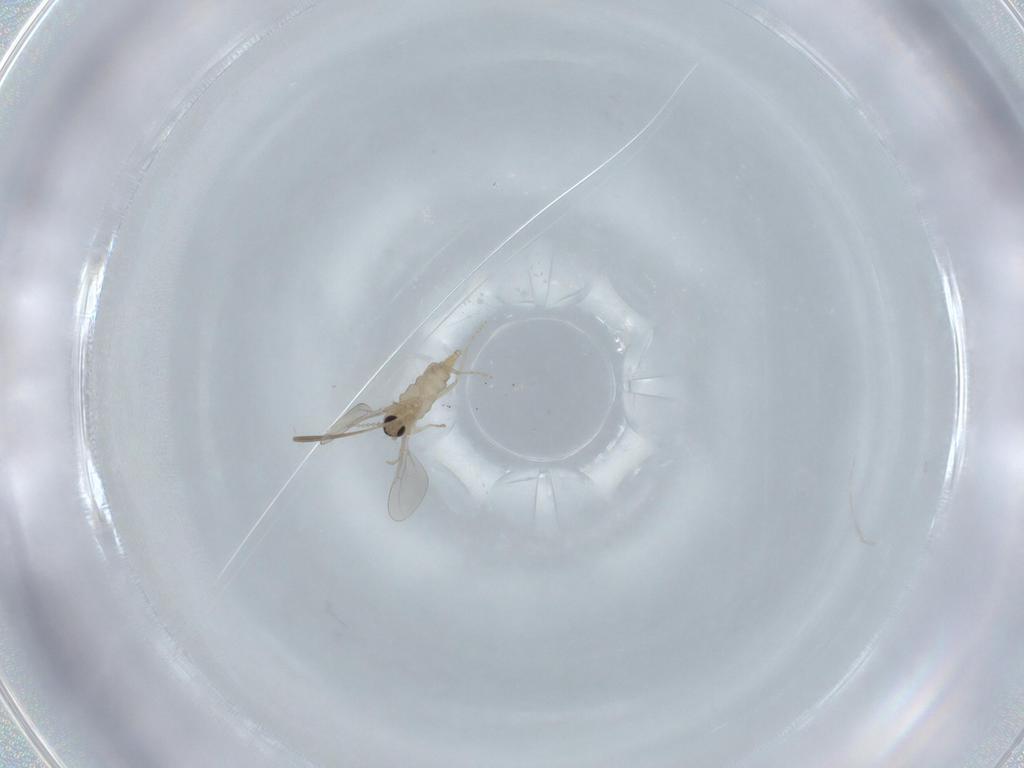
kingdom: Animalia
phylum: Arthropoda
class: Insecta
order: Diptera
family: Cecidomyiidae
